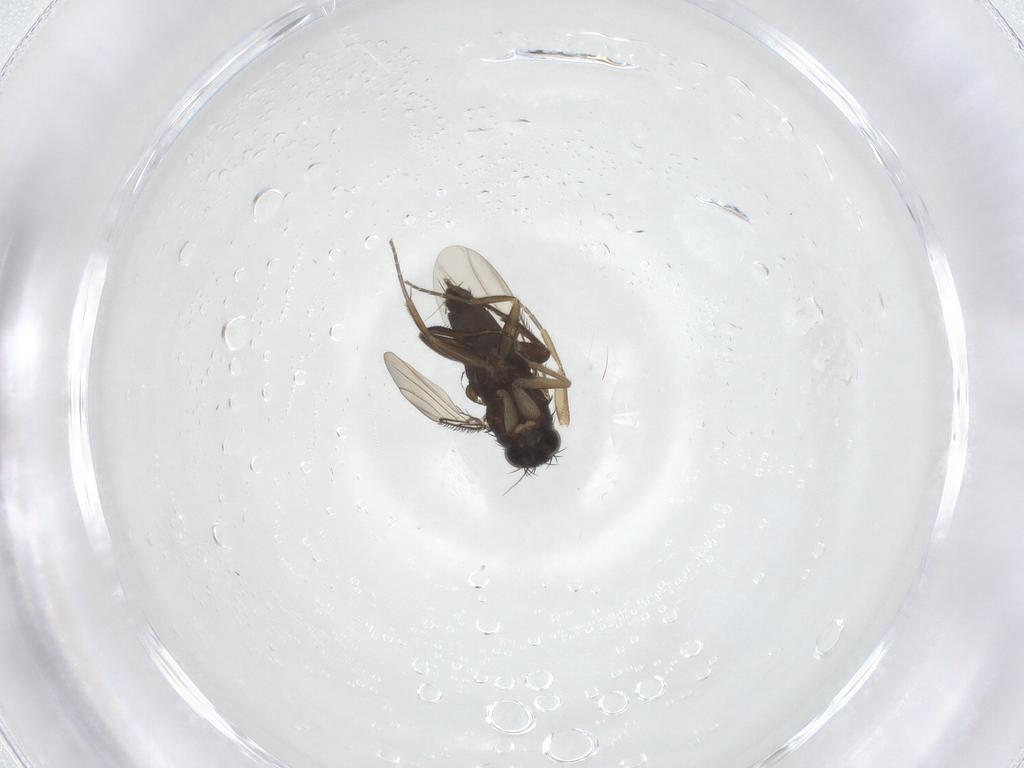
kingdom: Animalia
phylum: Arthropoda
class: Insecta
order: Diptera
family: Phoridae
